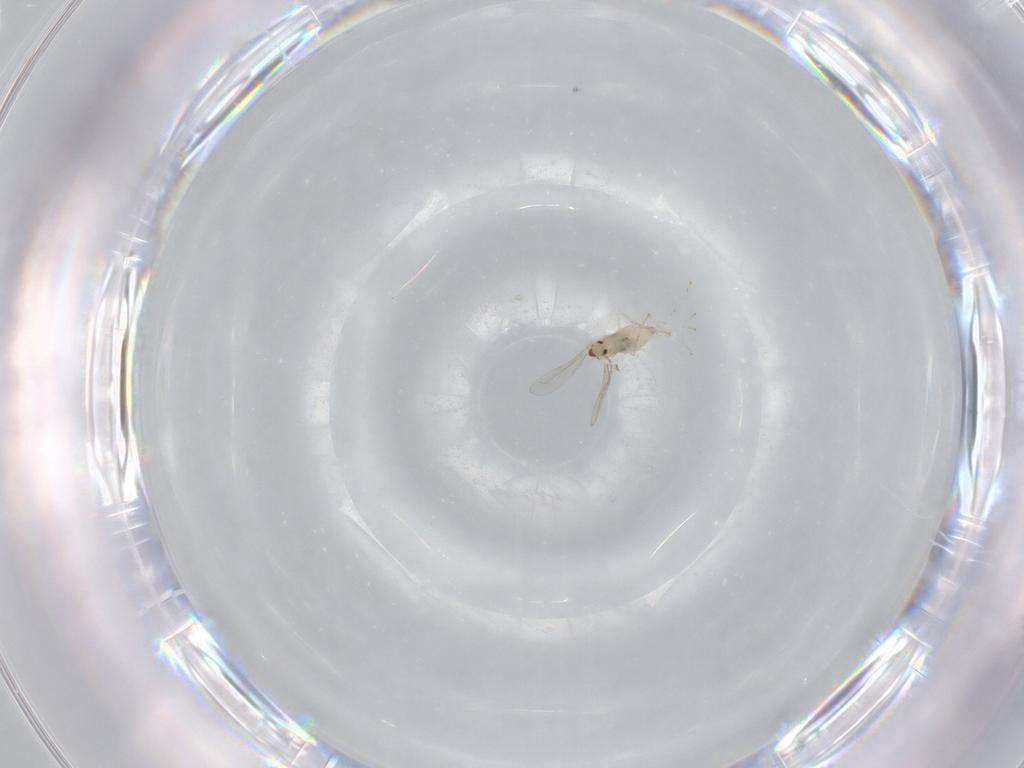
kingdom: Animalia
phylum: Arthropoda
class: Insecta
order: Diptera
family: Cecidomyiidae
